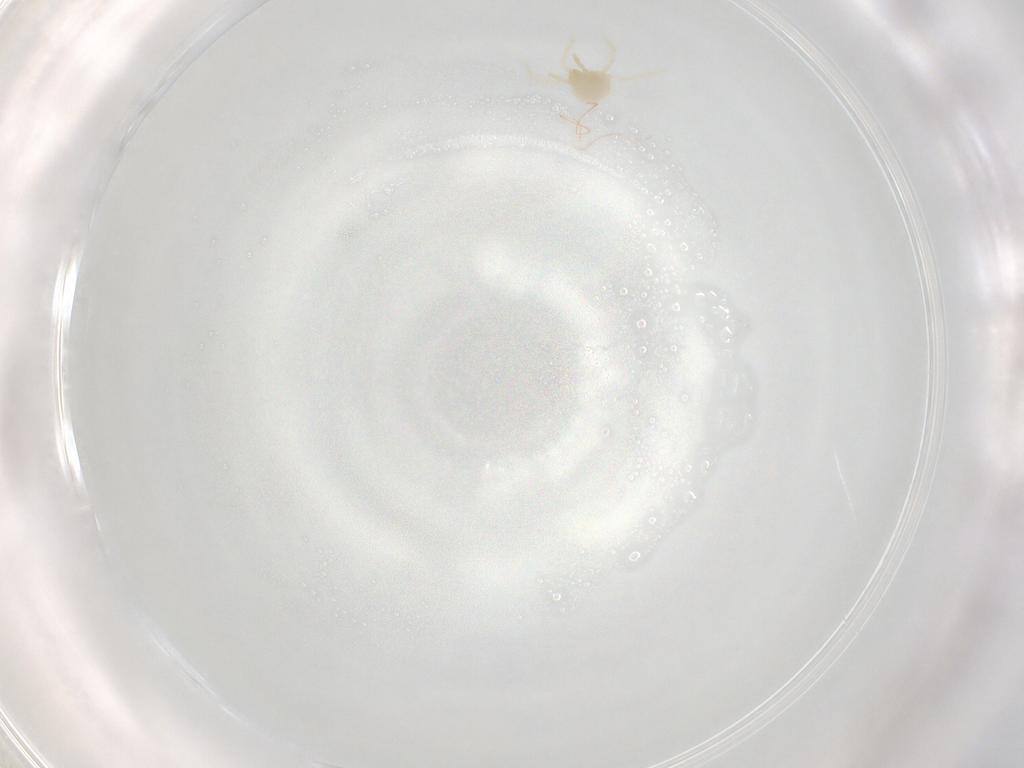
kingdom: Animalia
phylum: Arthropoda
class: Arachnida
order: Trombidiformes
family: Trombidiidae
